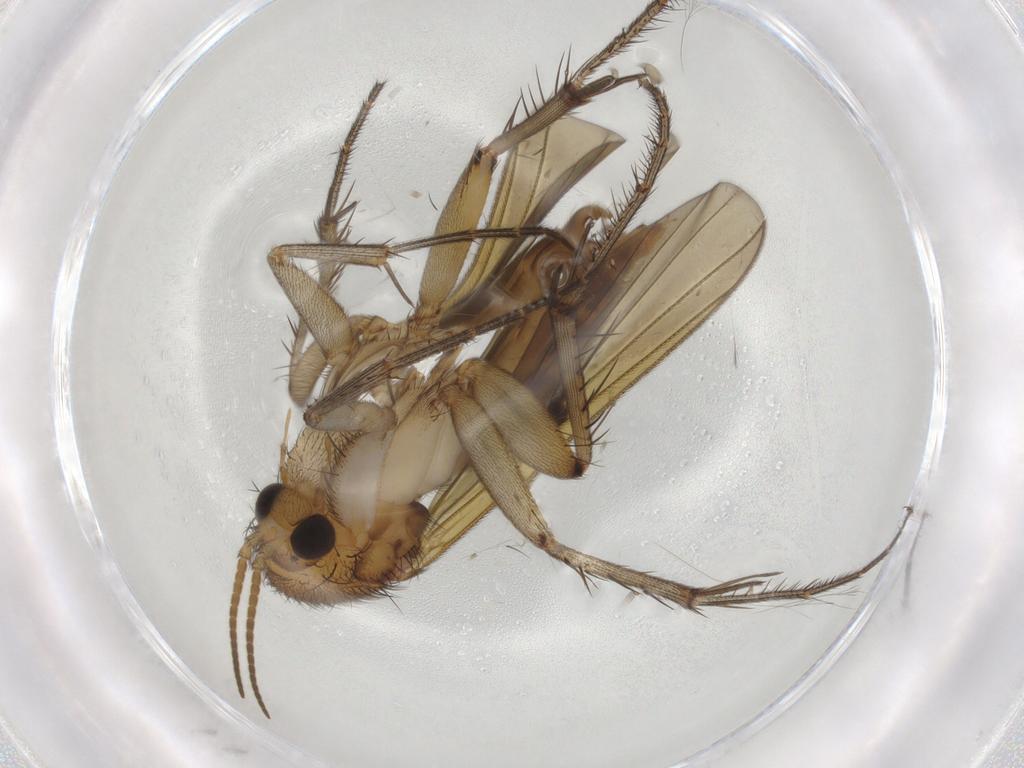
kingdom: Animalia
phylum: Arthropoda
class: Insecta
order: Diptera
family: Mycetophilidae
